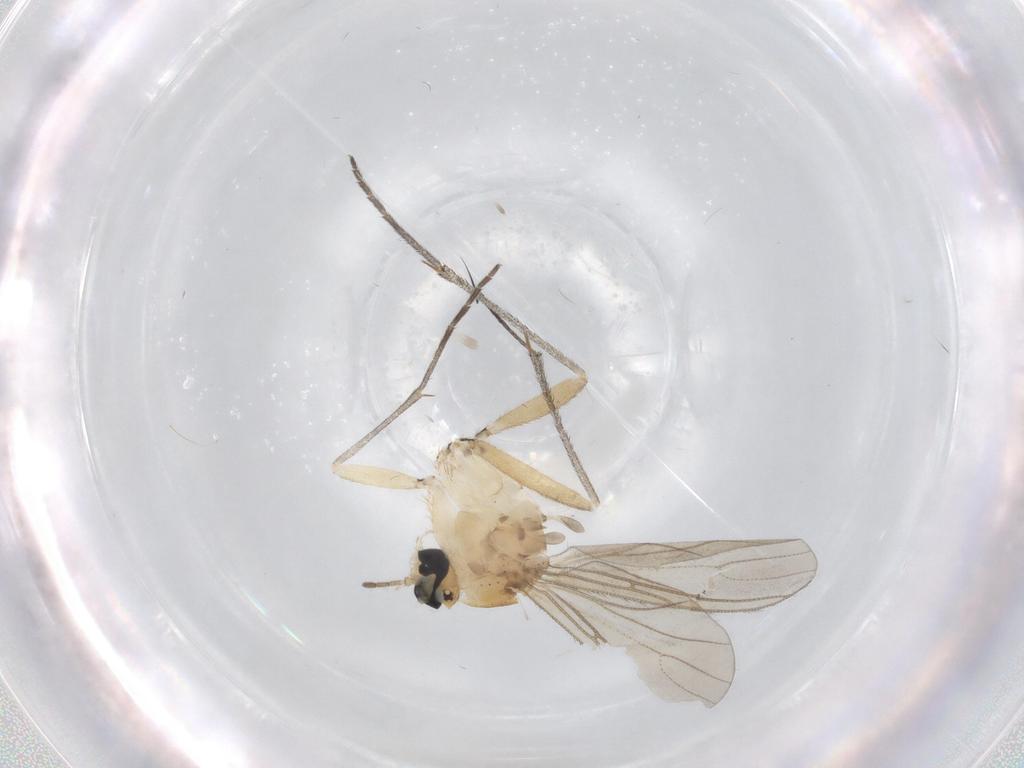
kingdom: Animalia
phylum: Arthropoda
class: Insecta
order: Diptera
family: Sciaridae
